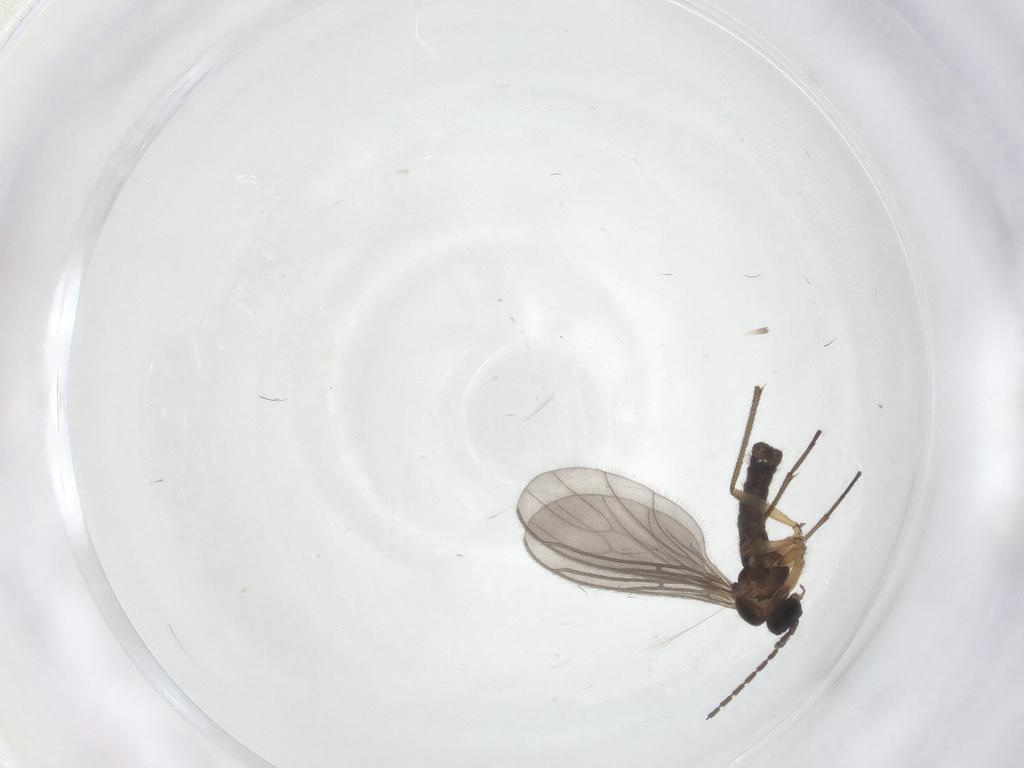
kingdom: Animalia
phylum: Arthropoda
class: Insecta
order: Diptera
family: Sciaridae
